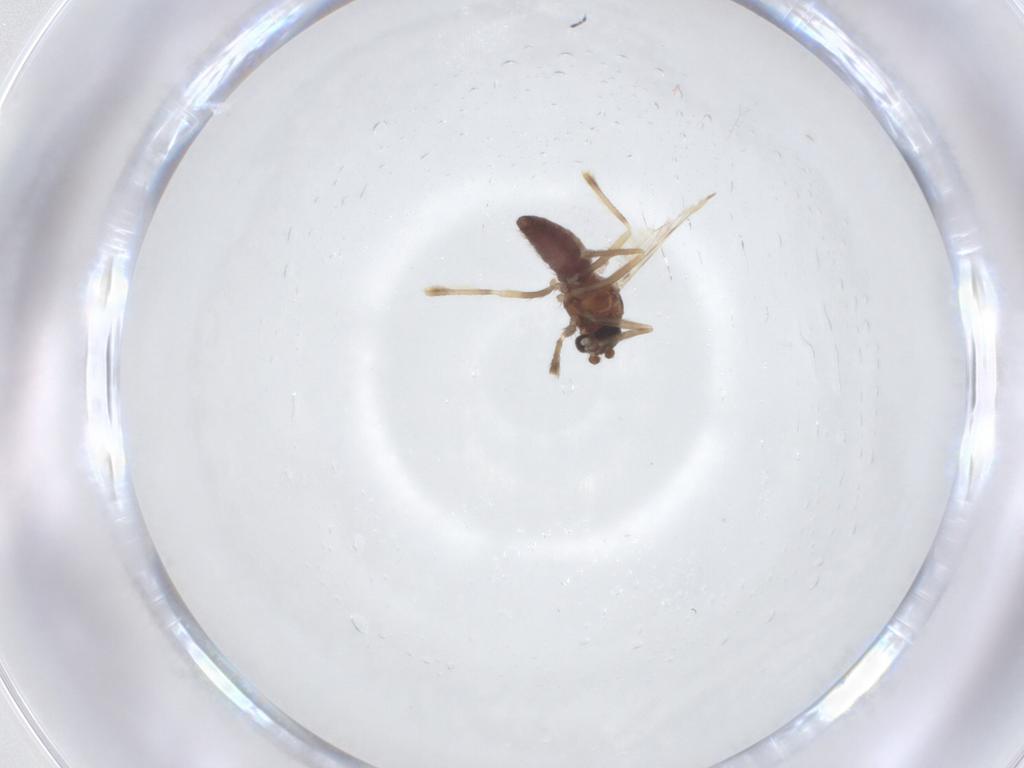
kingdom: Animalia
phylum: Arthropoda
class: Insecta
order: Diptera
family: Corethrellidae
